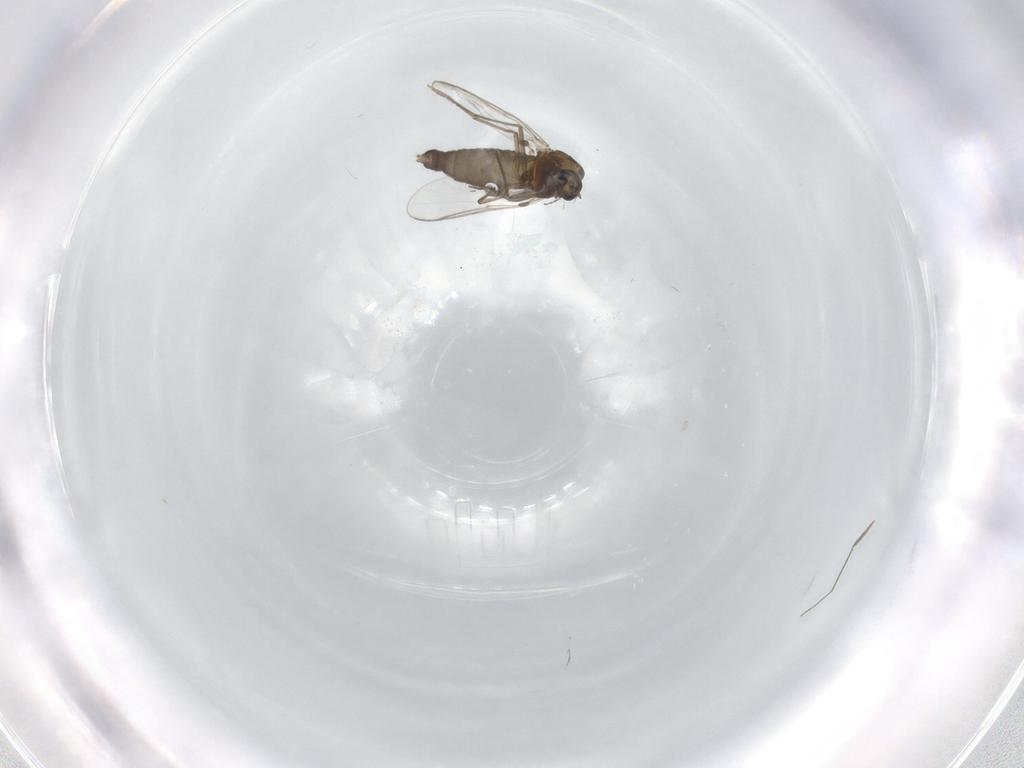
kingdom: Animalia
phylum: Arthropoda
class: Insecta
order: Diptera
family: Chironomidae
